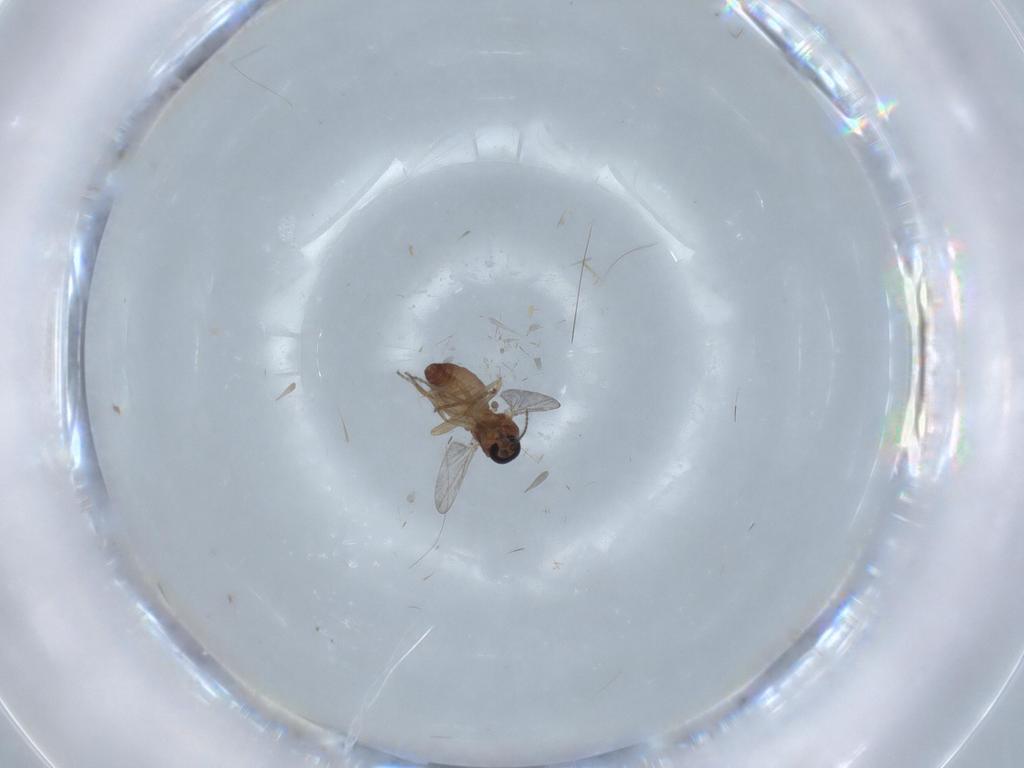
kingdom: Animalia
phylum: Arthropoda
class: Insecta
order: Diptera
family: Ceratopogonidae
